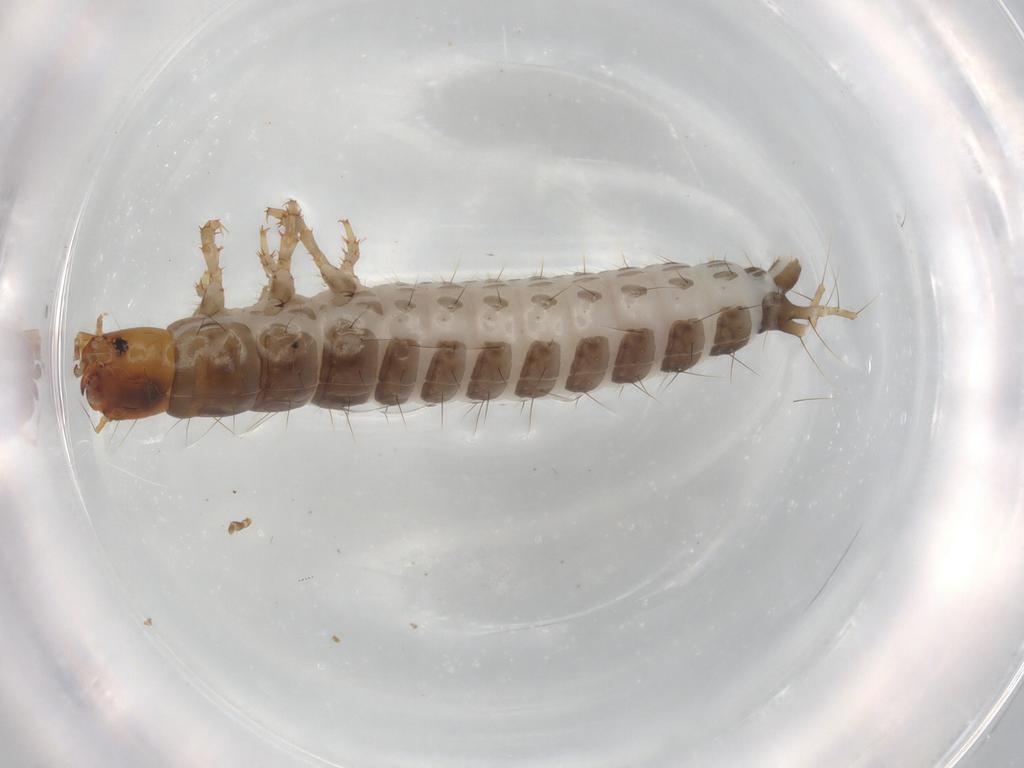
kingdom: Animalia
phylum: Arthropoda
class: Insecta
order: Coleoptera
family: Carabidae
